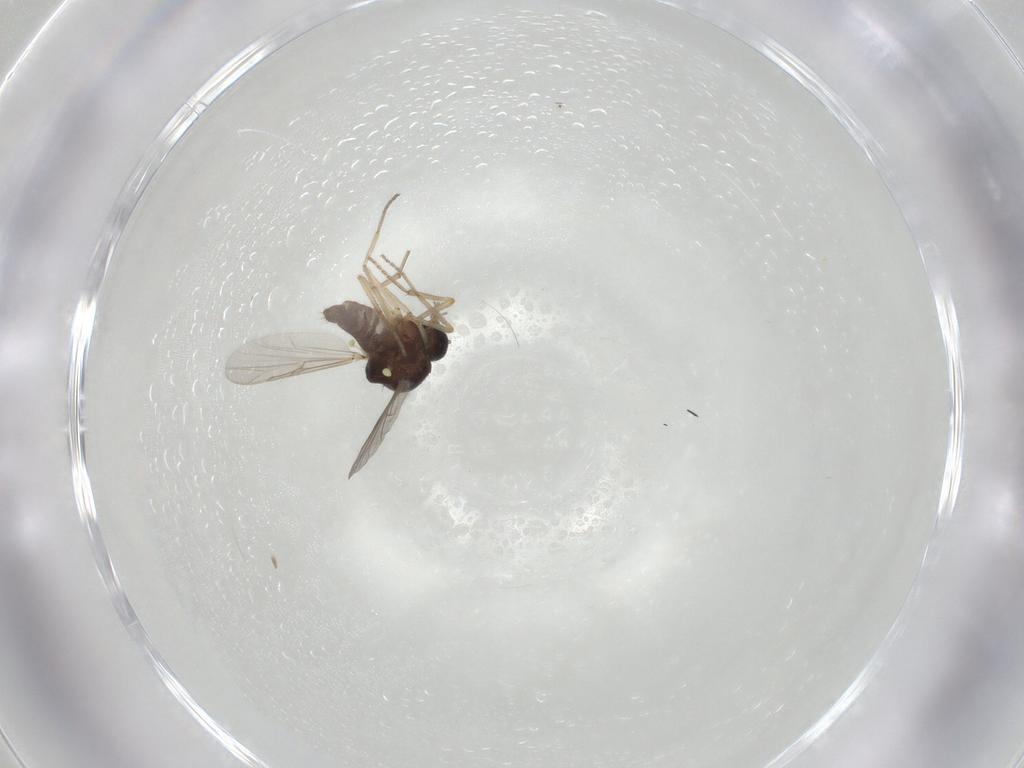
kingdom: Animalia
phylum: Arthropoda
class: Insecta
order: Diptera
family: Ceratopogonidae
